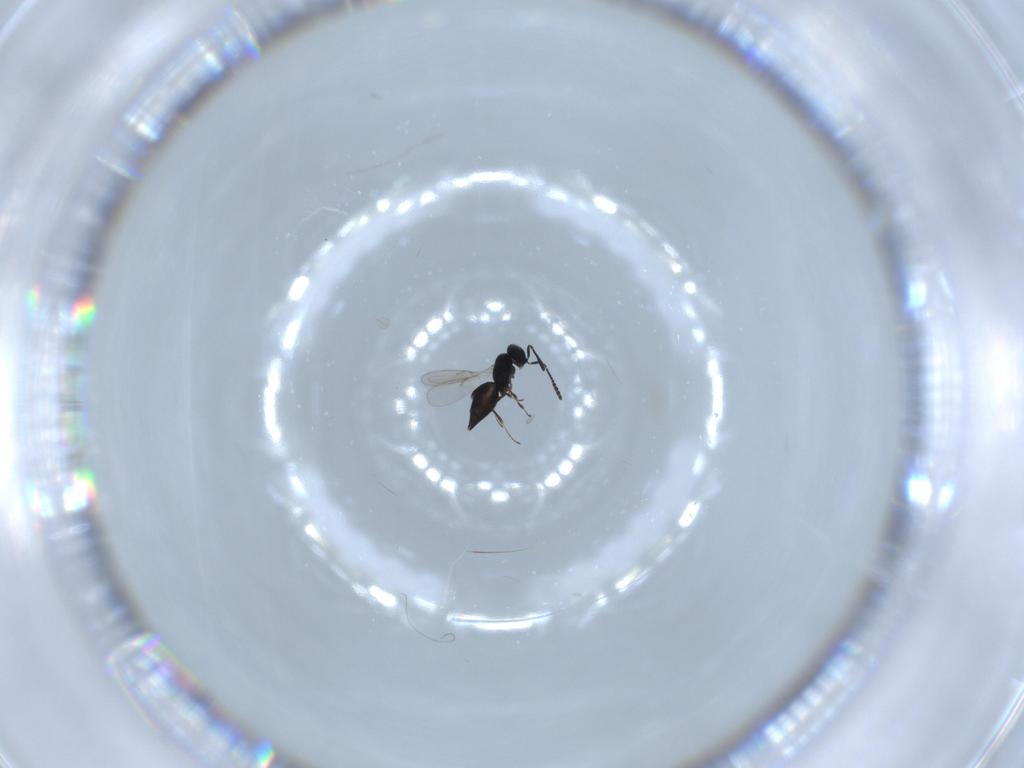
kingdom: Animalia
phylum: Arthropoda
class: Insecta
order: Hymenoptera
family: Scelionidae
